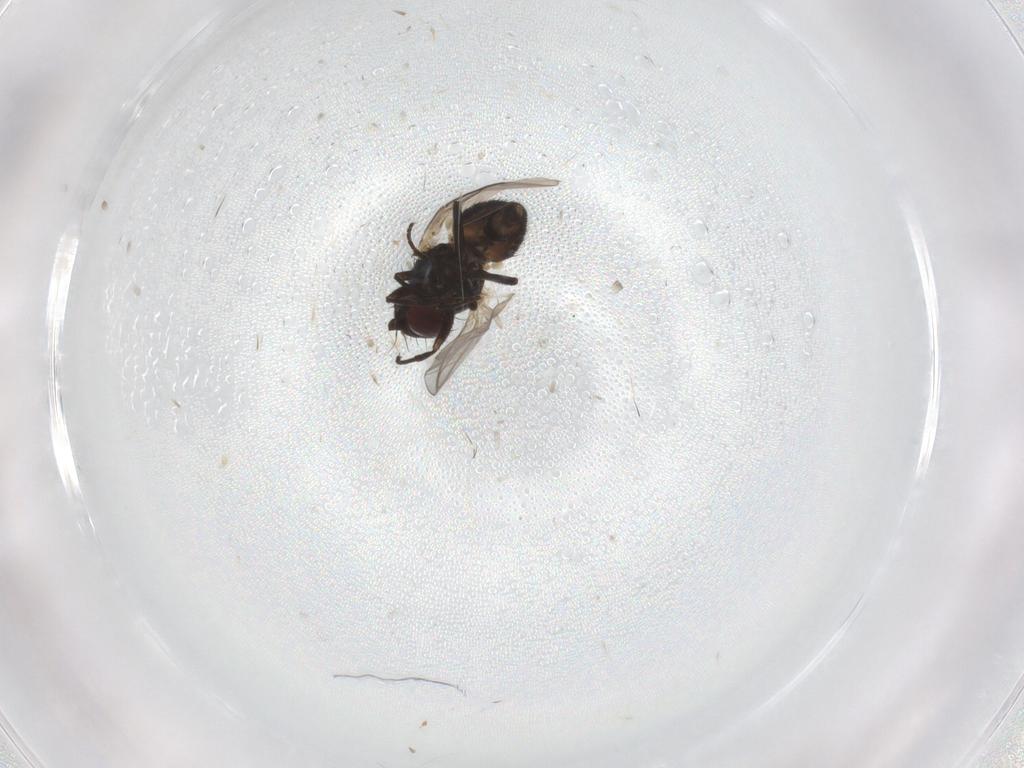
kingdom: Animalia
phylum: Arthropoda
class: Insecta
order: Diptera
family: Agromyzidae
